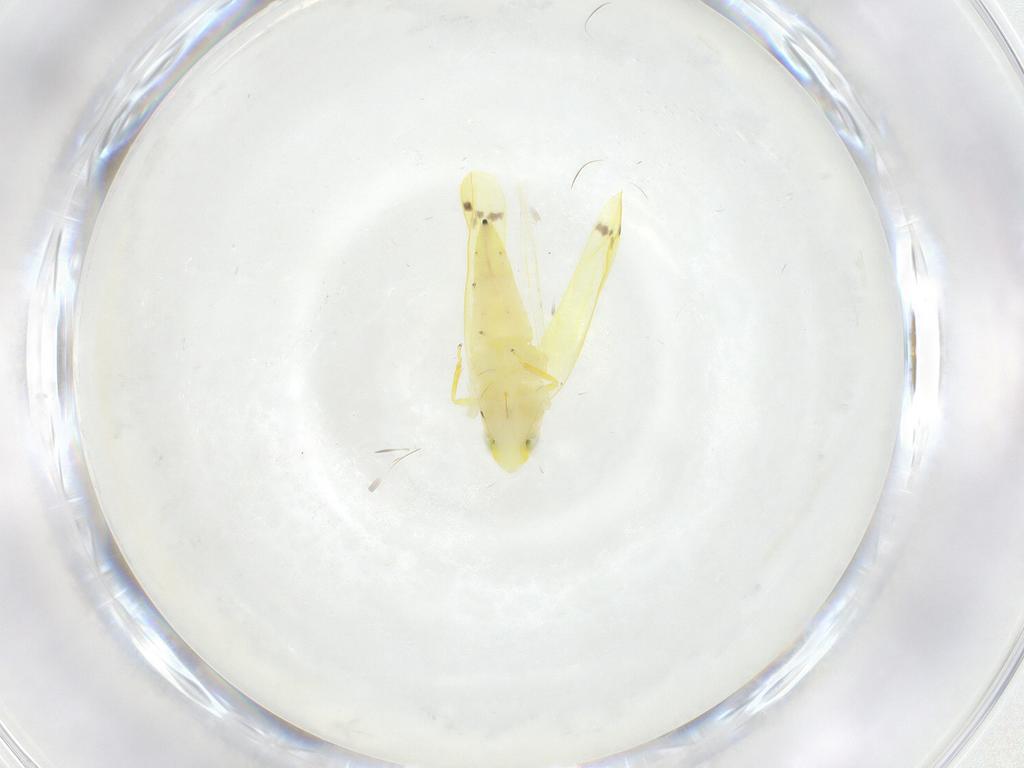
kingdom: Animalia
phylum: Arthropoda
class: Insecta
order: Hemiptera
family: Cicadellidae
